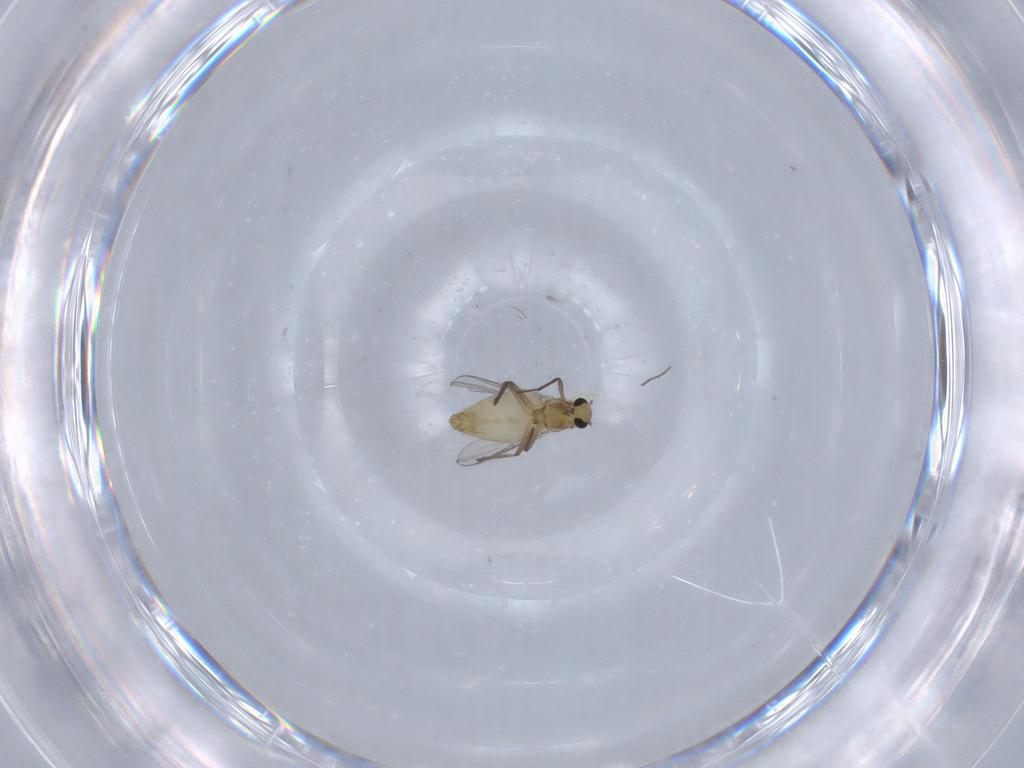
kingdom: Animalia
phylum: Arthropoda
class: Insecta
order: Diptera
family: Chironomidae
